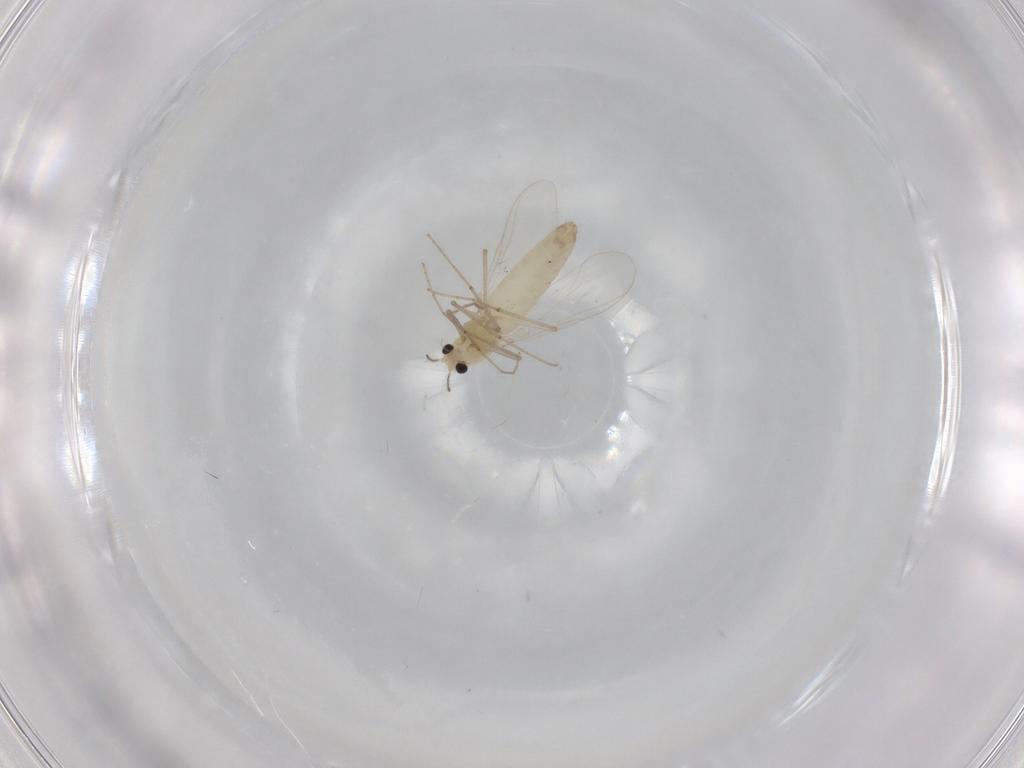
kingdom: Animalia
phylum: Arthropoda
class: Insecta
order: Diptera
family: Chironomidae
